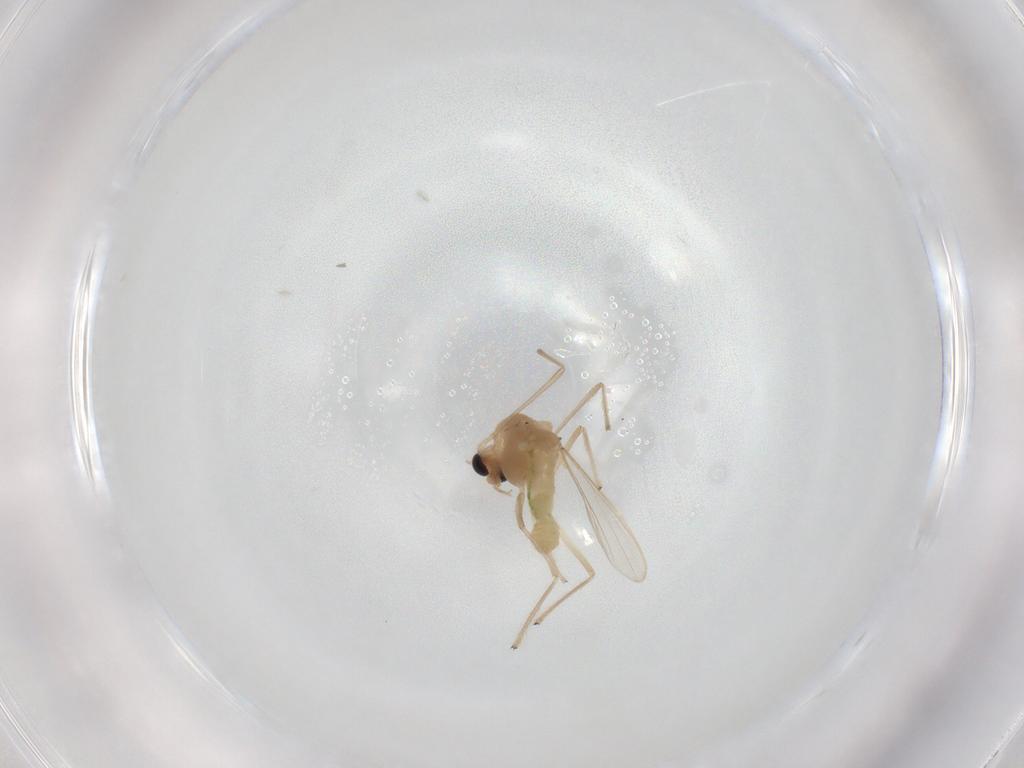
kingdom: Animalia
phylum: Arthropoda
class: Insecta
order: Diptera
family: Chironomidae
